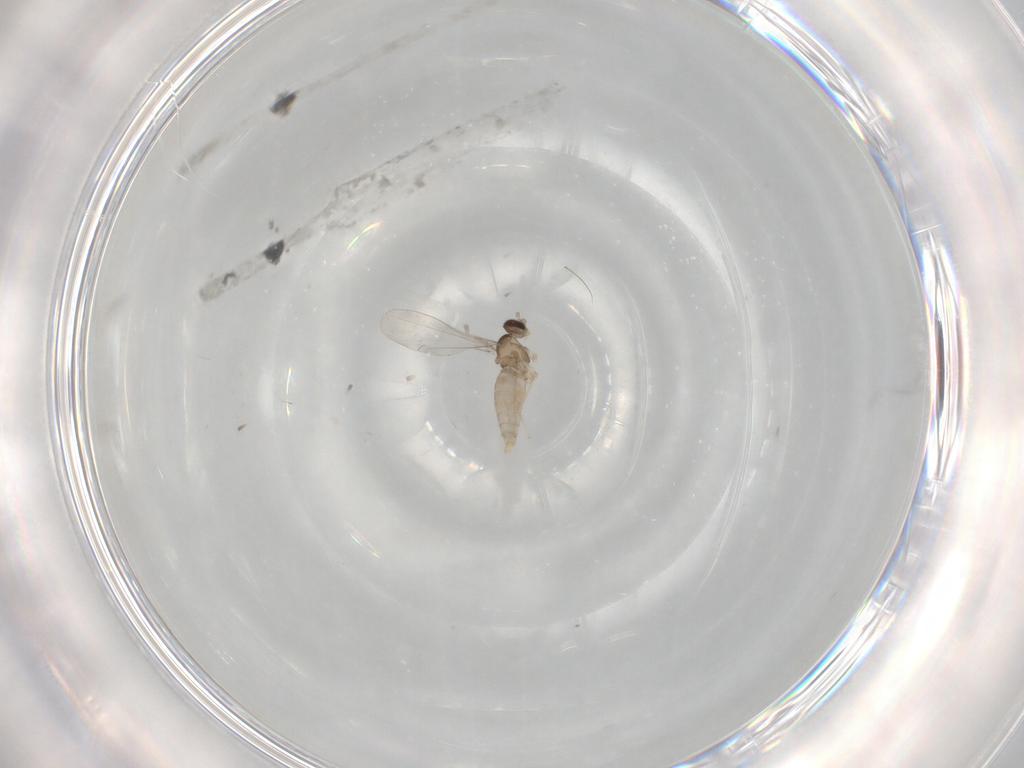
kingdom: Animalia
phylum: Arthropoda
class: Insecta
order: Diptera
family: Cecidomyiidae
